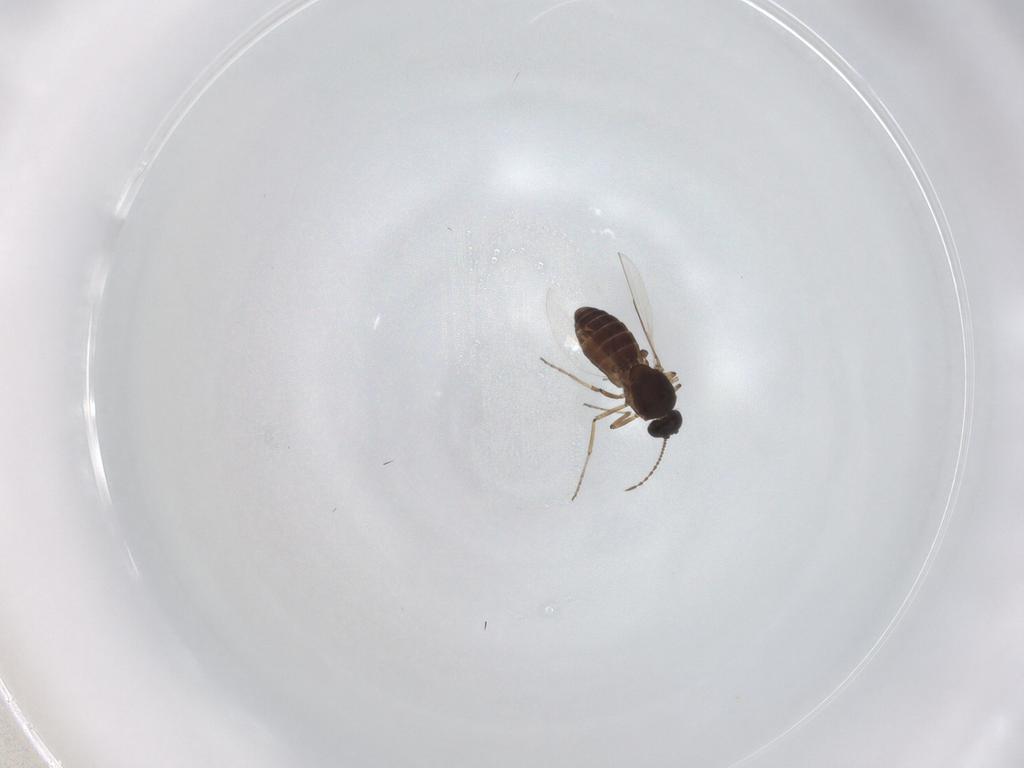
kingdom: Animalia
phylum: Arthropoda
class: Insecta
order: Diptera
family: Ceratopogonidae
